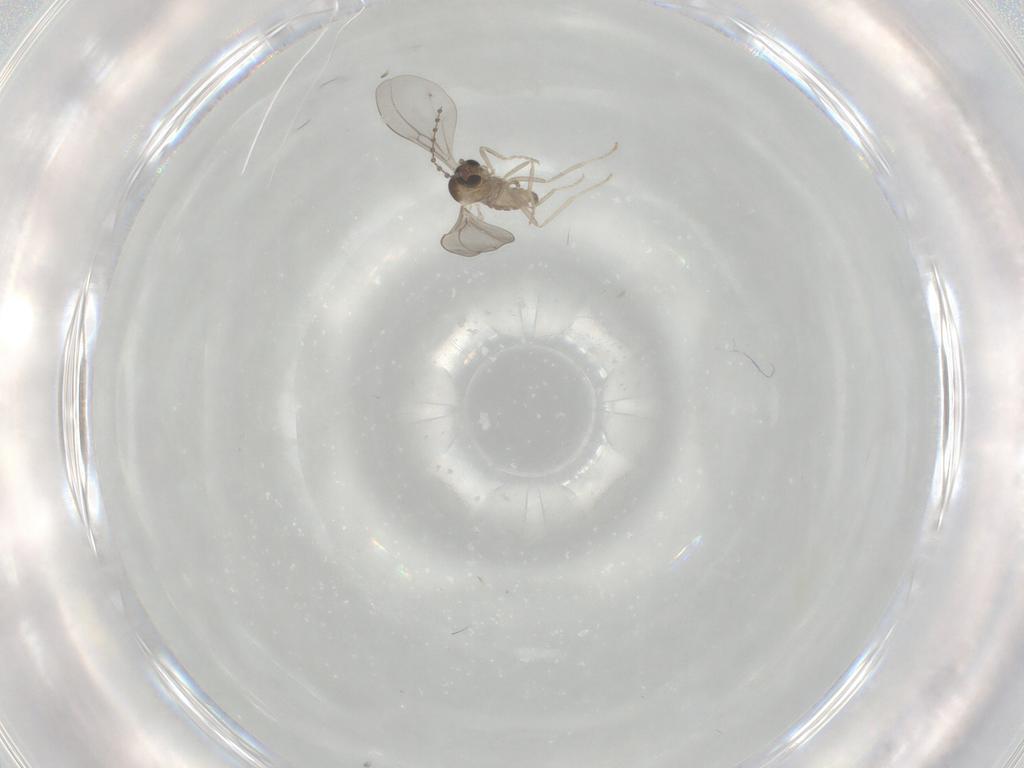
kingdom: Animalia
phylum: Arthropoda
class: Insecta
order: Diptera
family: Cecidomyiidae
